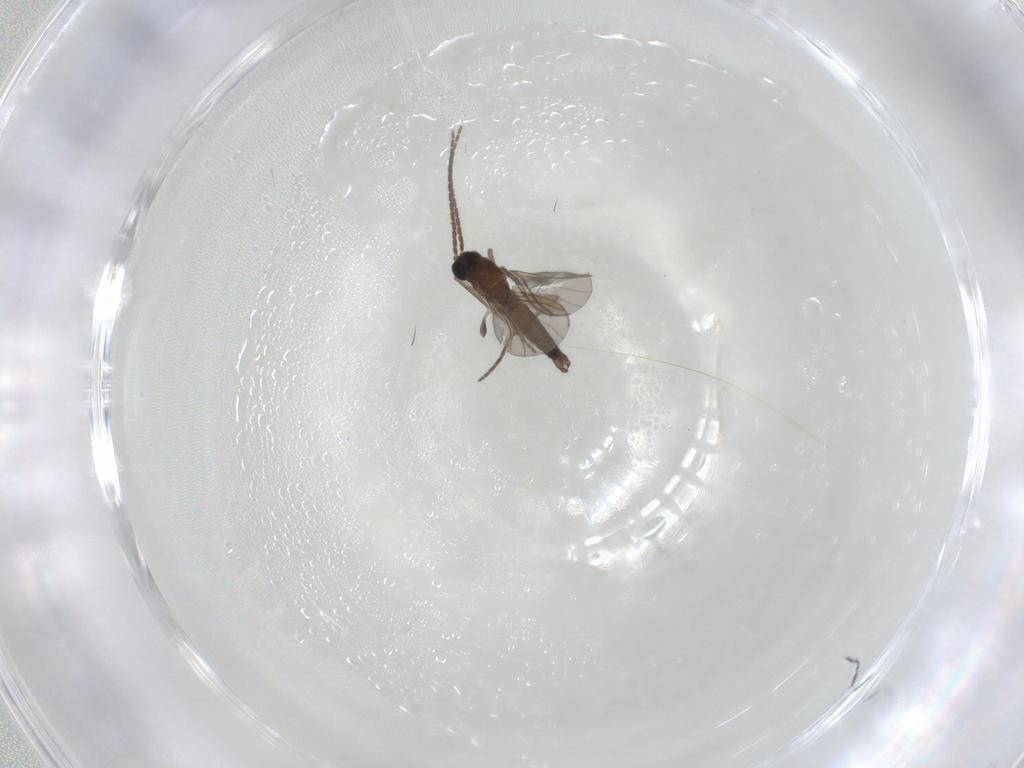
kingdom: Animalia
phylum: Arthropoda
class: Insecta
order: Diptera
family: Sciaridae
